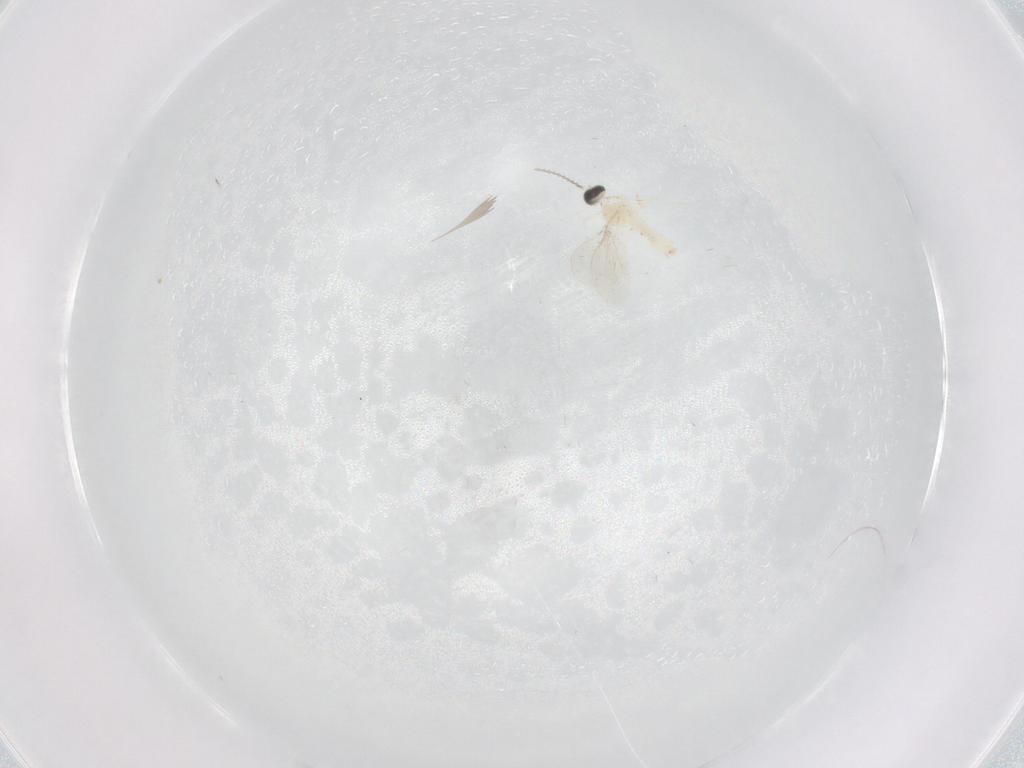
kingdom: Animalia
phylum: Arthropoda
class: Insecta
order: Diptera
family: Cecidomyiidae
